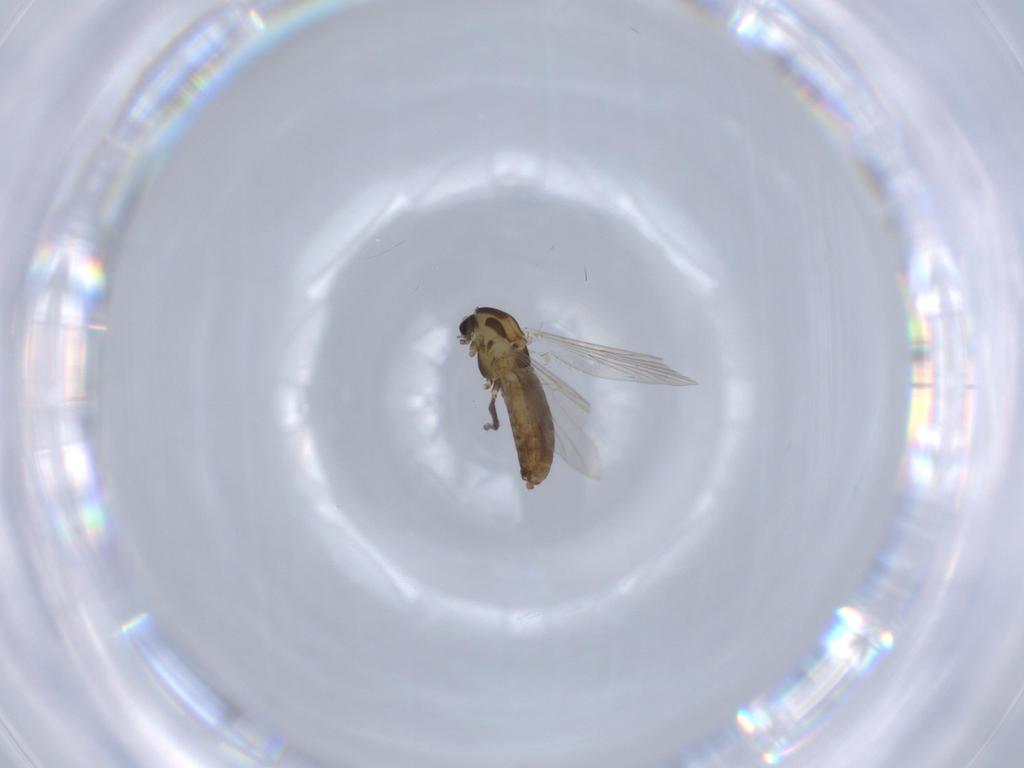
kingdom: Animalia
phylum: Arthropoda
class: Insecta
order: Diptera
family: Chironomidae
